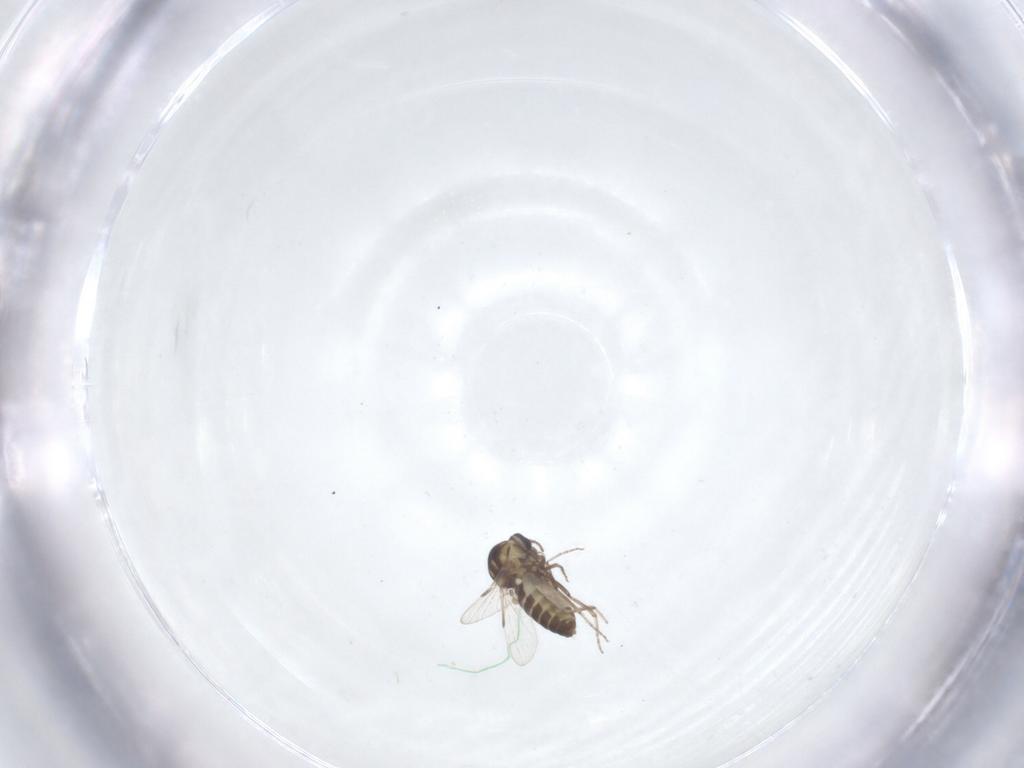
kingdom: Animalia
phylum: Arthropoda
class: Insecta
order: Diptera
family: Ceratopogonidae
